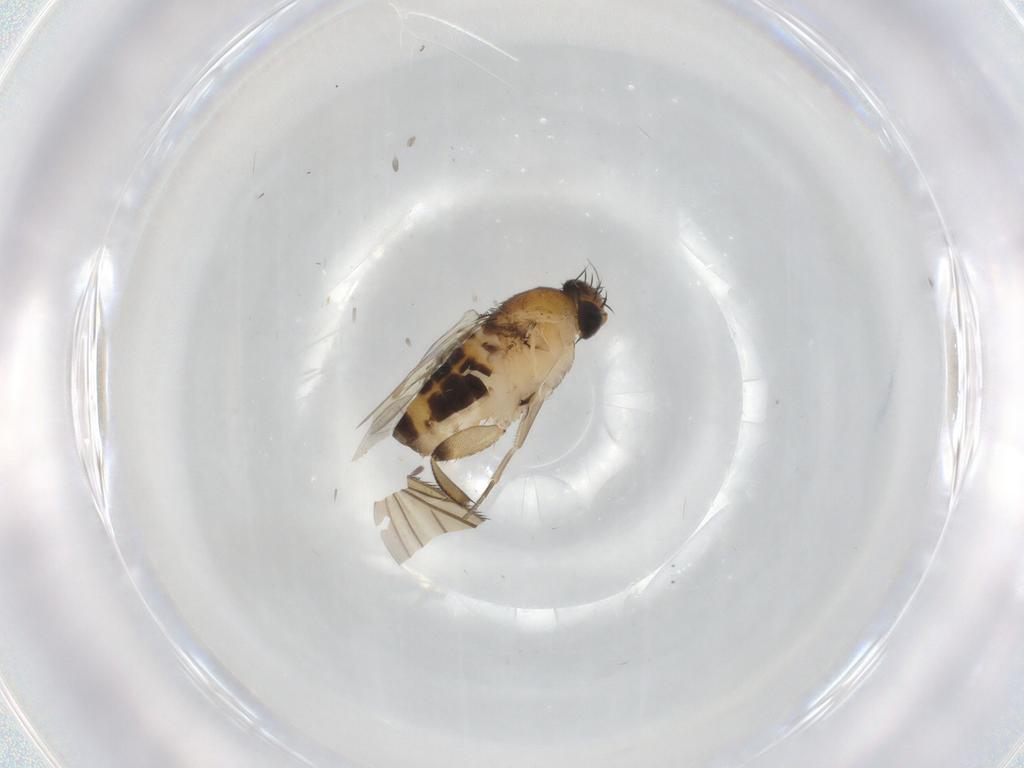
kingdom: Animalia
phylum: Arthropoda
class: Insecta
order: Diptera
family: Phoridae
